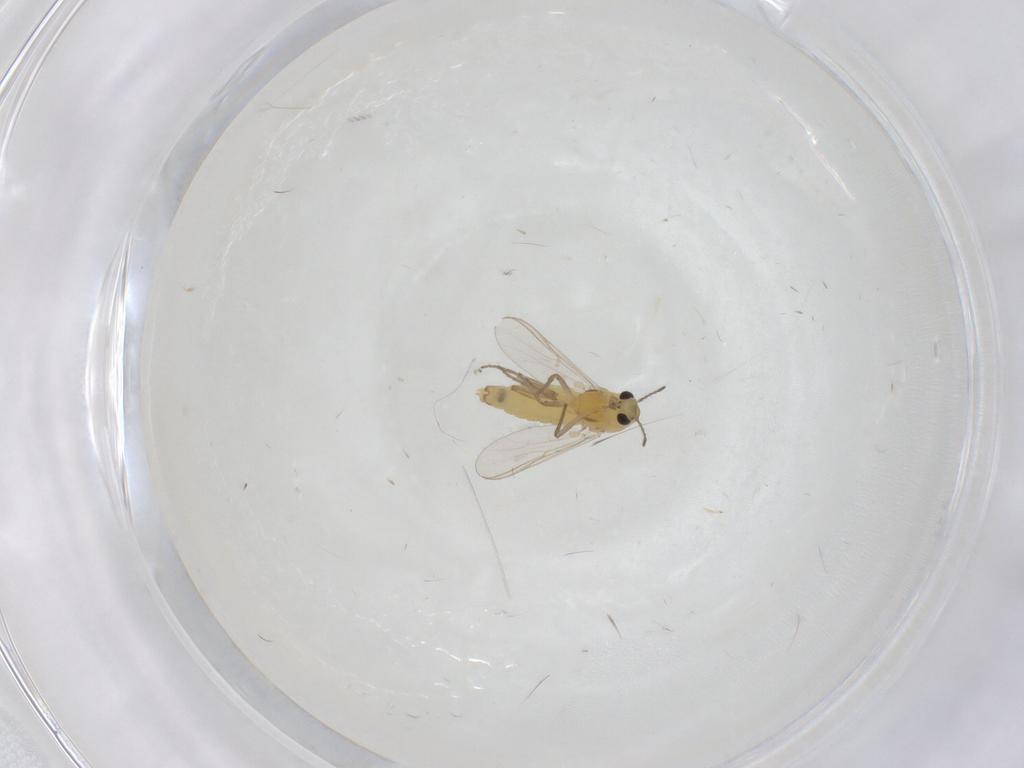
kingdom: Animalia
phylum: Arthropoda
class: Insecta
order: Diptera
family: Chironomidae
